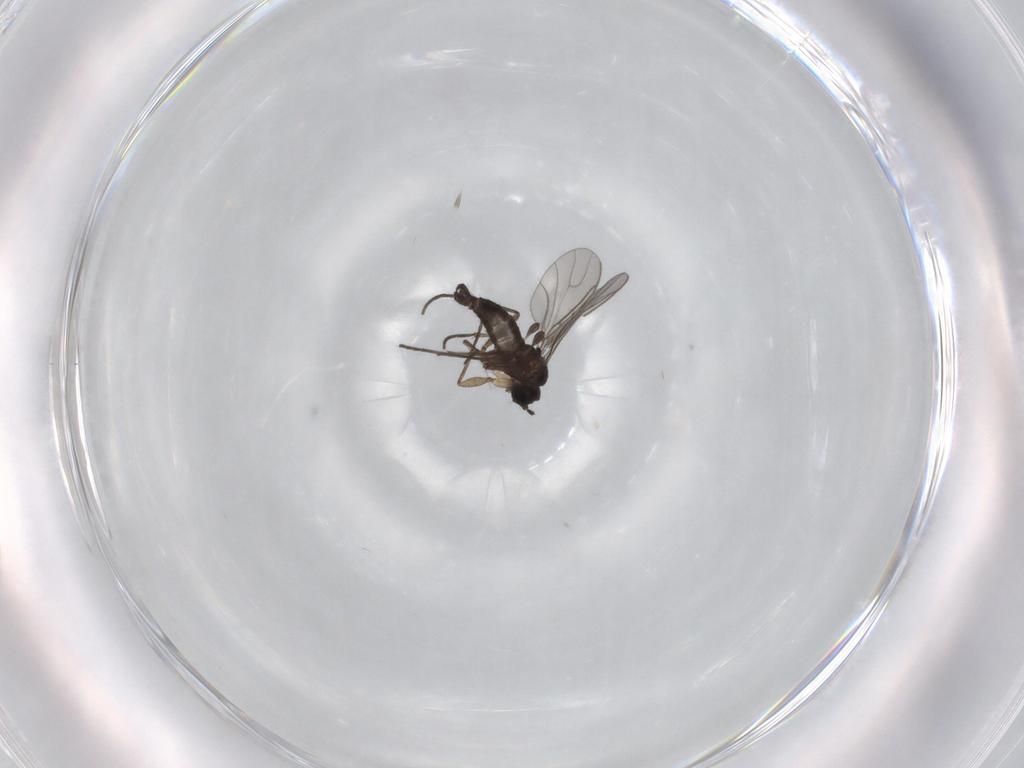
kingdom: Animalia
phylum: Arthropoda
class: Insecta
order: Diptera
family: Sciaridae
